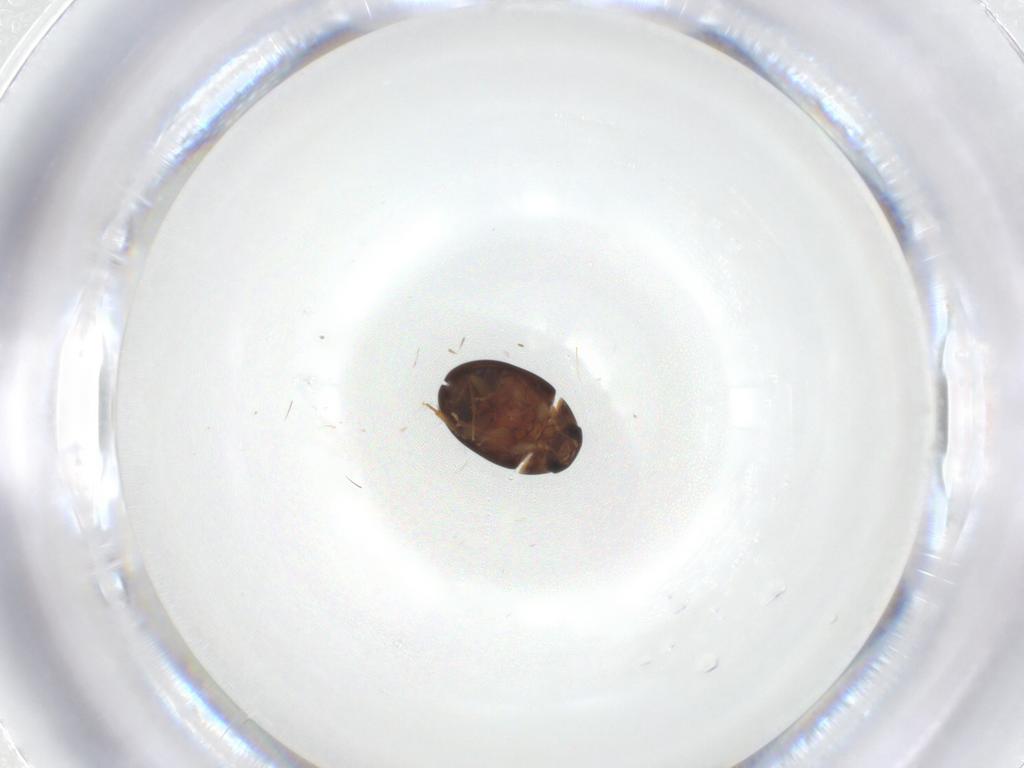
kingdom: Animalia
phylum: Arthropoda
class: Insecta
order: Coleoptera
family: Phalacridae
